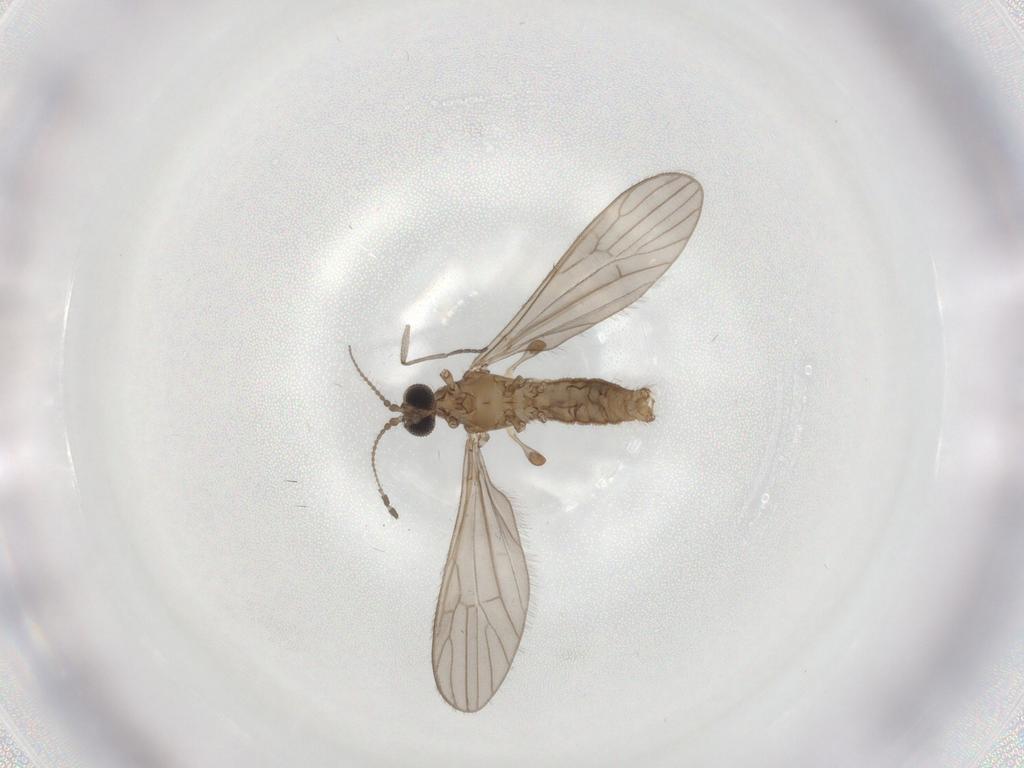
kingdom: Animalia
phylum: Arthropoda
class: Insecta
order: Diptera
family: Limoniidae
